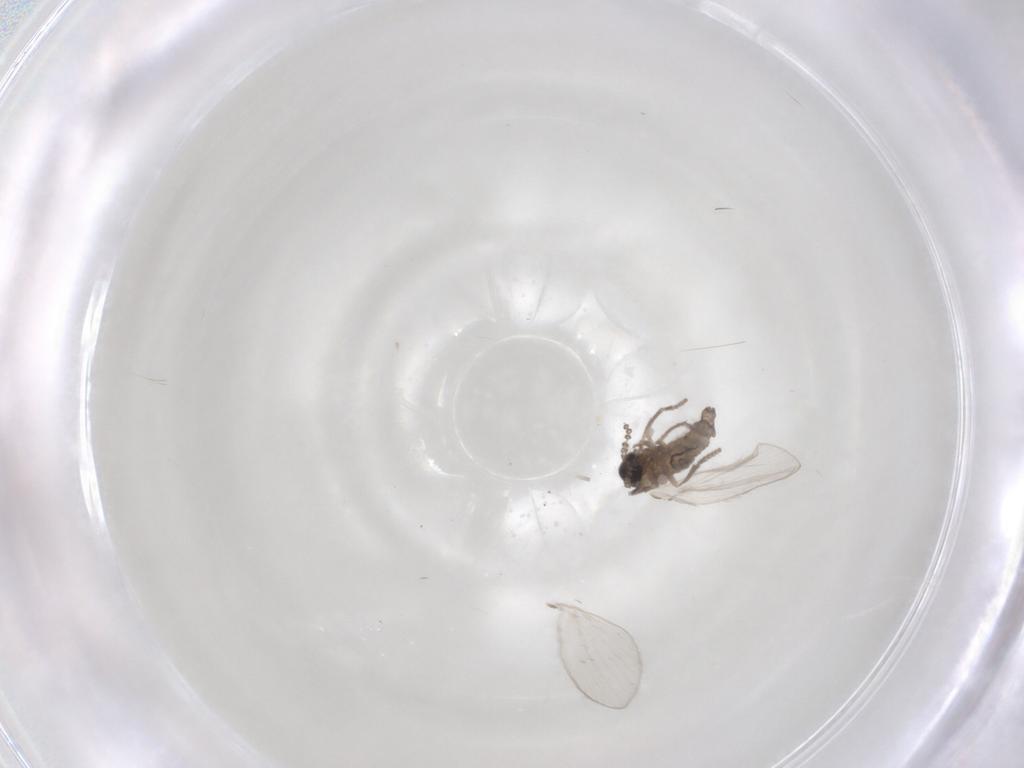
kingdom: Animalia
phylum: Arthropoda
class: Insecta
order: Diptera
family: Psychodidae
